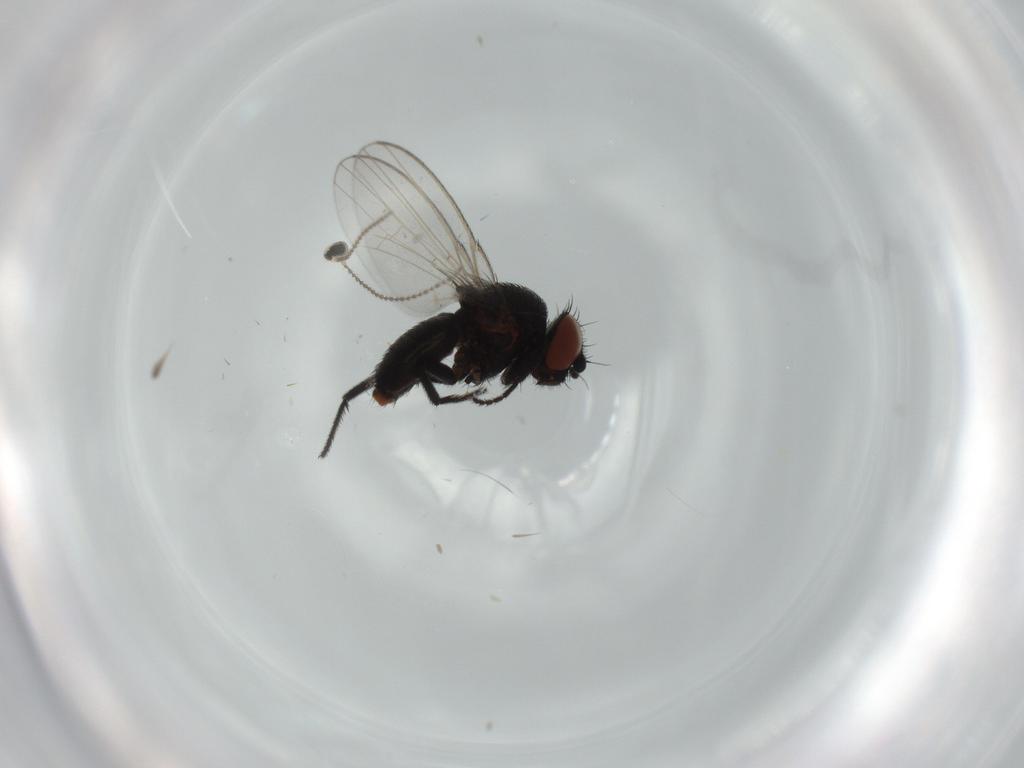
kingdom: Animalia
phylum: Arthropoda
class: Insecta
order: Diptera
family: Cecidomyiidae
